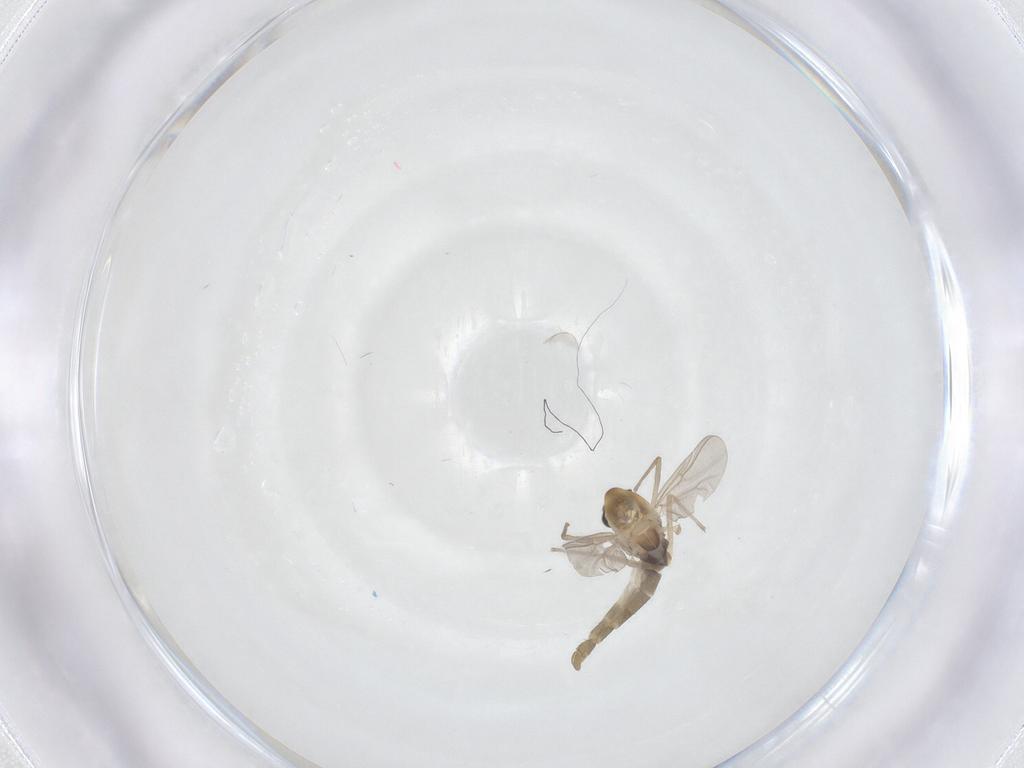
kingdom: Animalia
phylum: Arthropoda
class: Insecta
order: Diptera
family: Chironomidae
